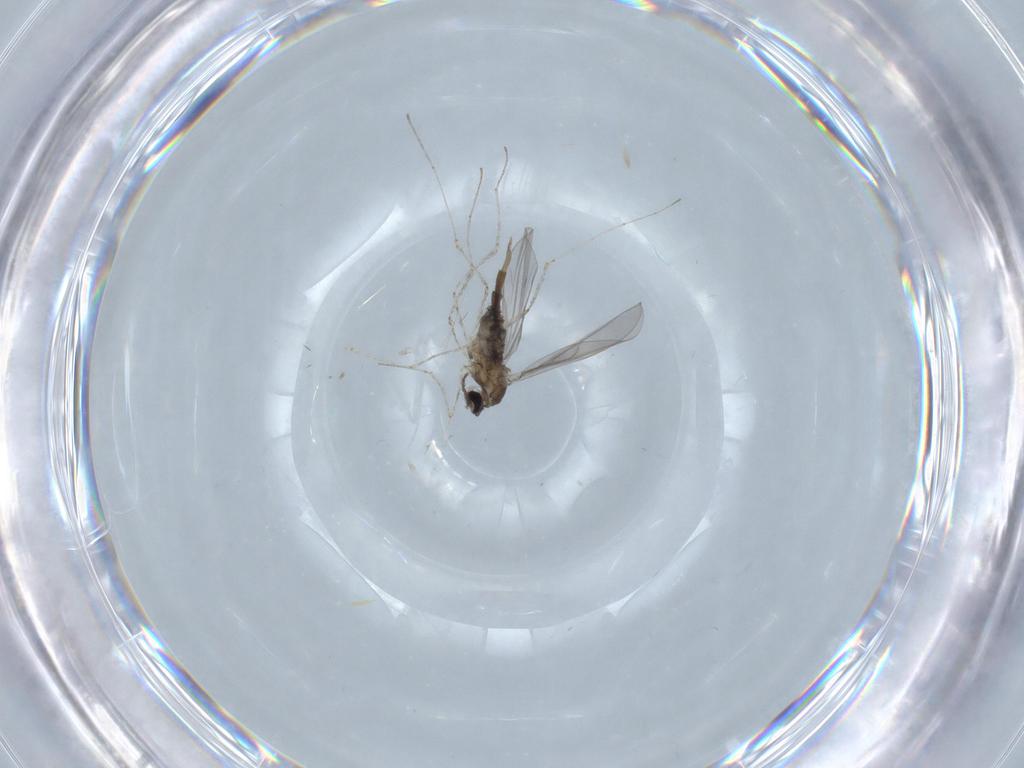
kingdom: Animalia
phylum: Arthropoda
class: Insecta
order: Diptera
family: Cecidomyiidae
